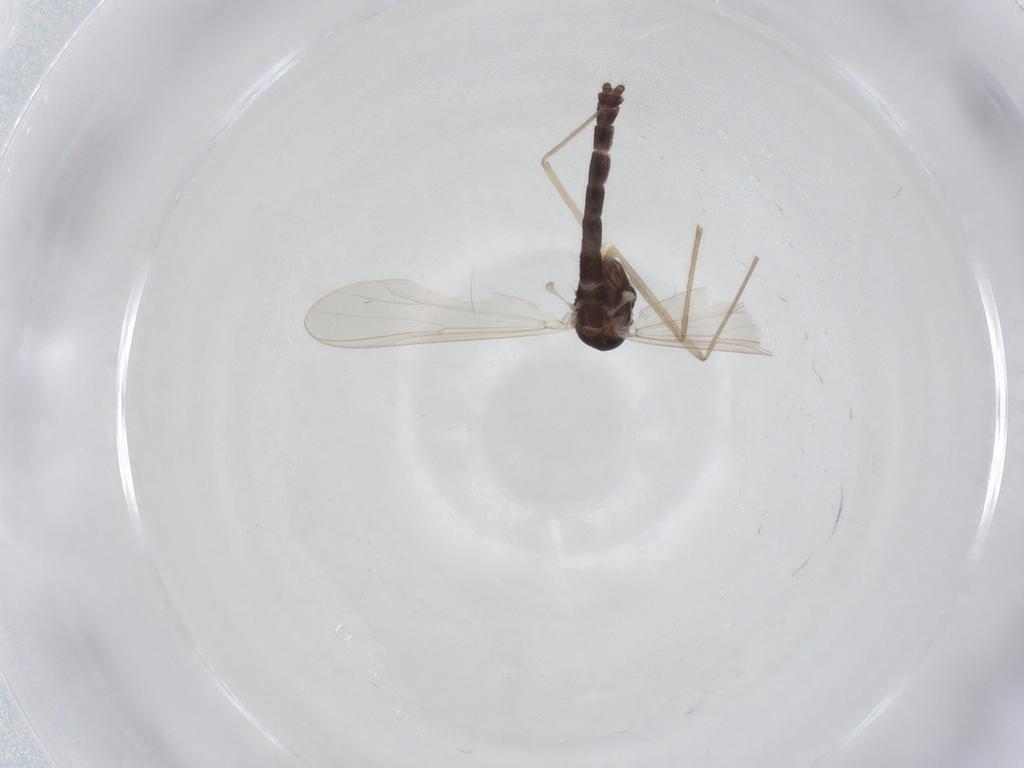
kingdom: Animalia
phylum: Arthropoda
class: Insecta
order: Diptera
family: Chironomidae
